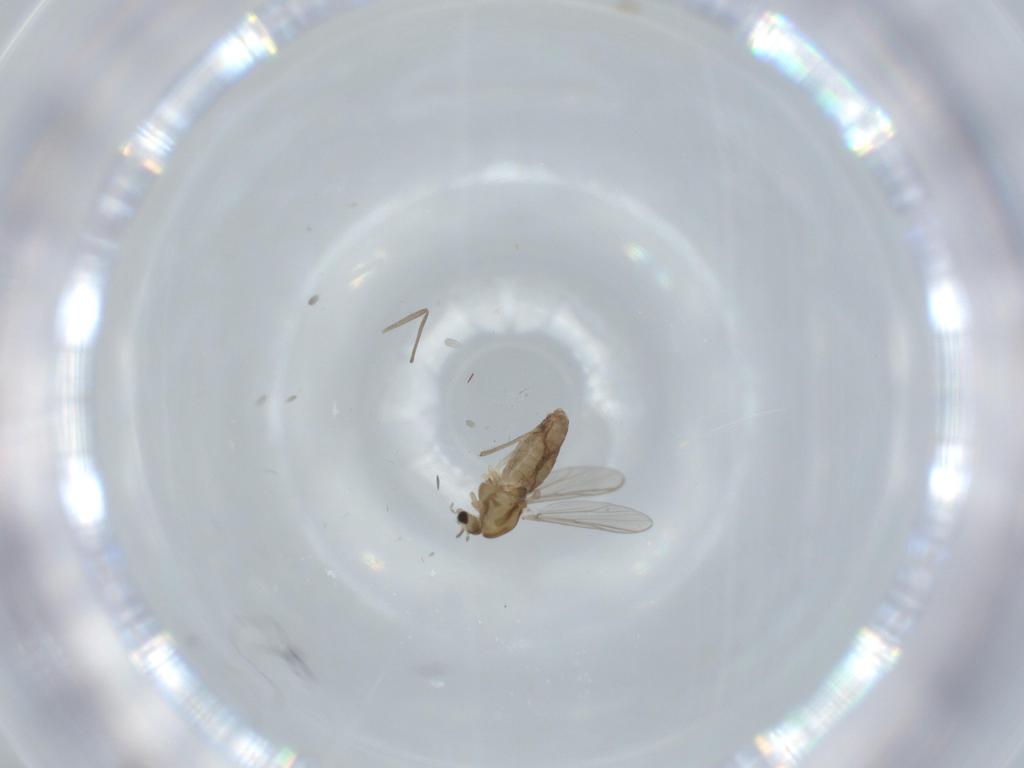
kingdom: Animalia
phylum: Arthropoda
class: Insecta
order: Diptera
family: Chironomidae
